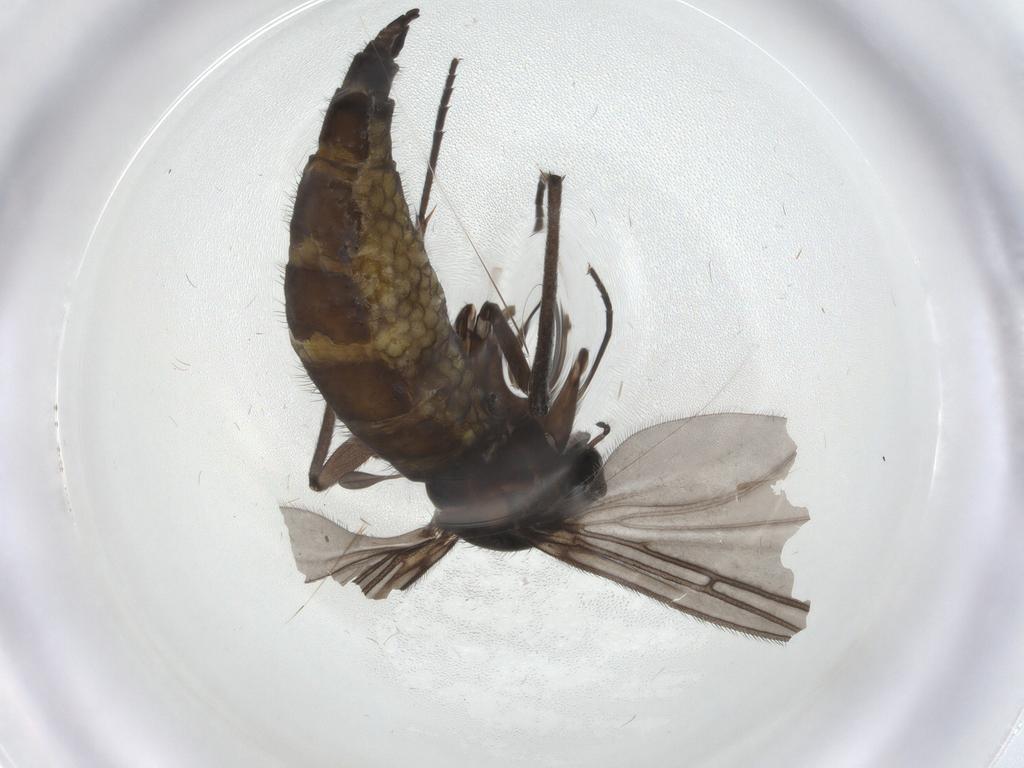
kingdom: Animalia
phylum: Arthropoda
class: Insecta
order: Diptera
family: Sciaridae
